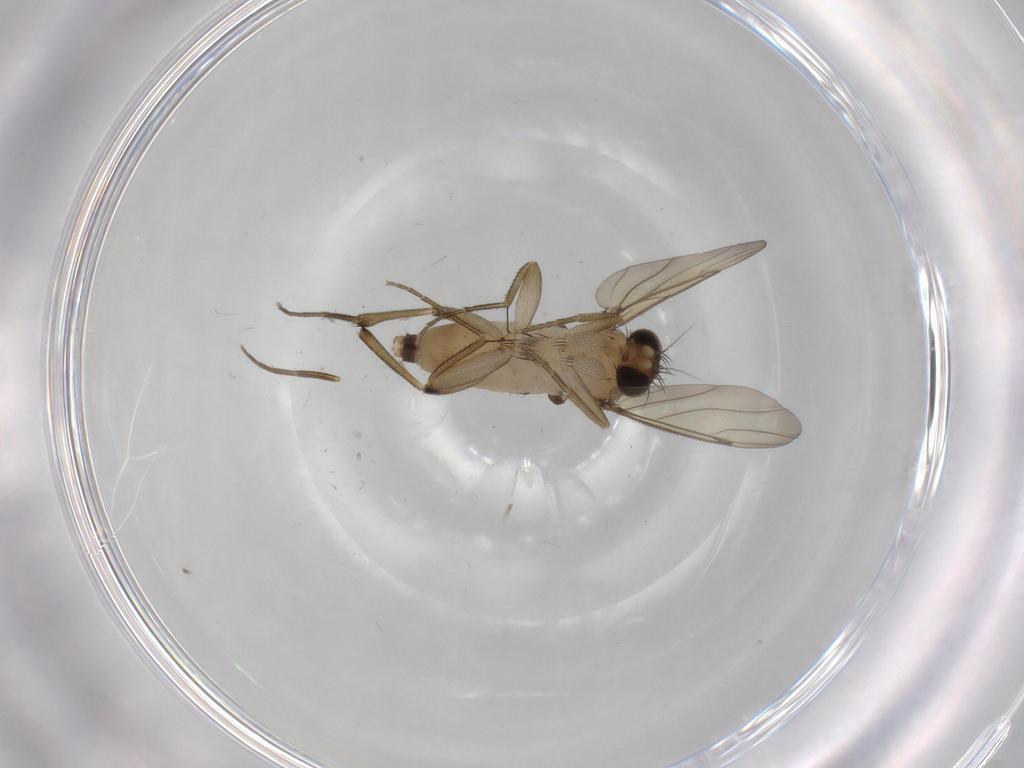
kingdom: Animalia
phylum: Arthropoda
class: Insecta
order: Diptera
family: Phoridae
